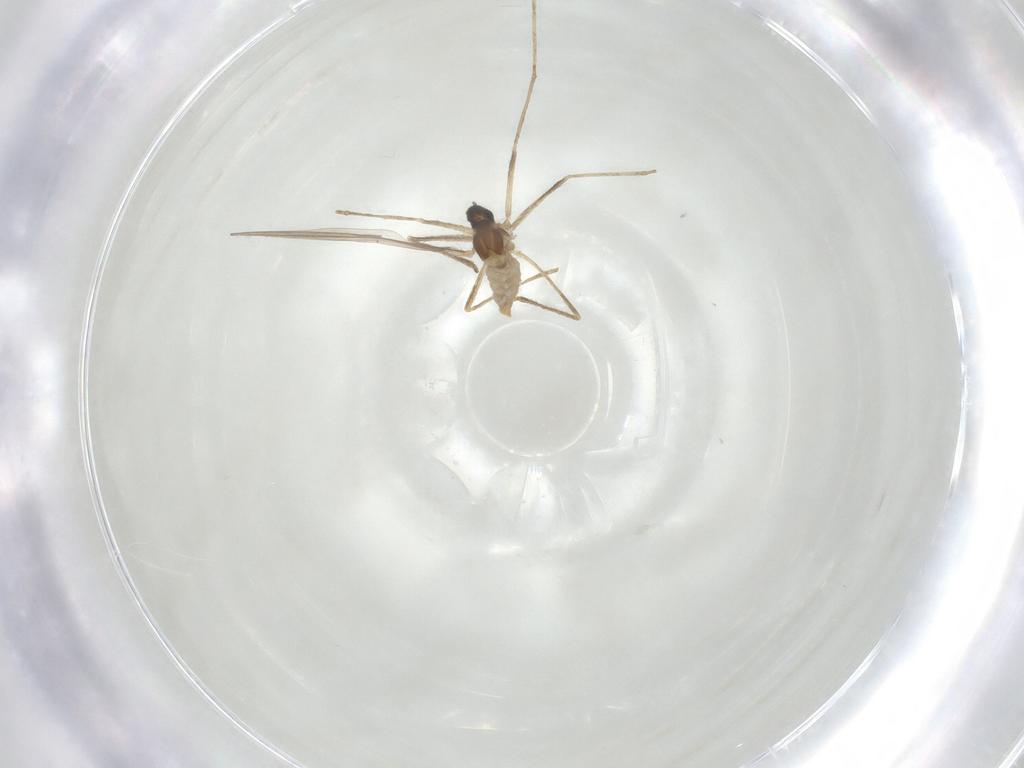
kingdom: Animalia
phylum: Arthropoda
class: Insecta
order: Diptera
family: Cecidomyiidae
